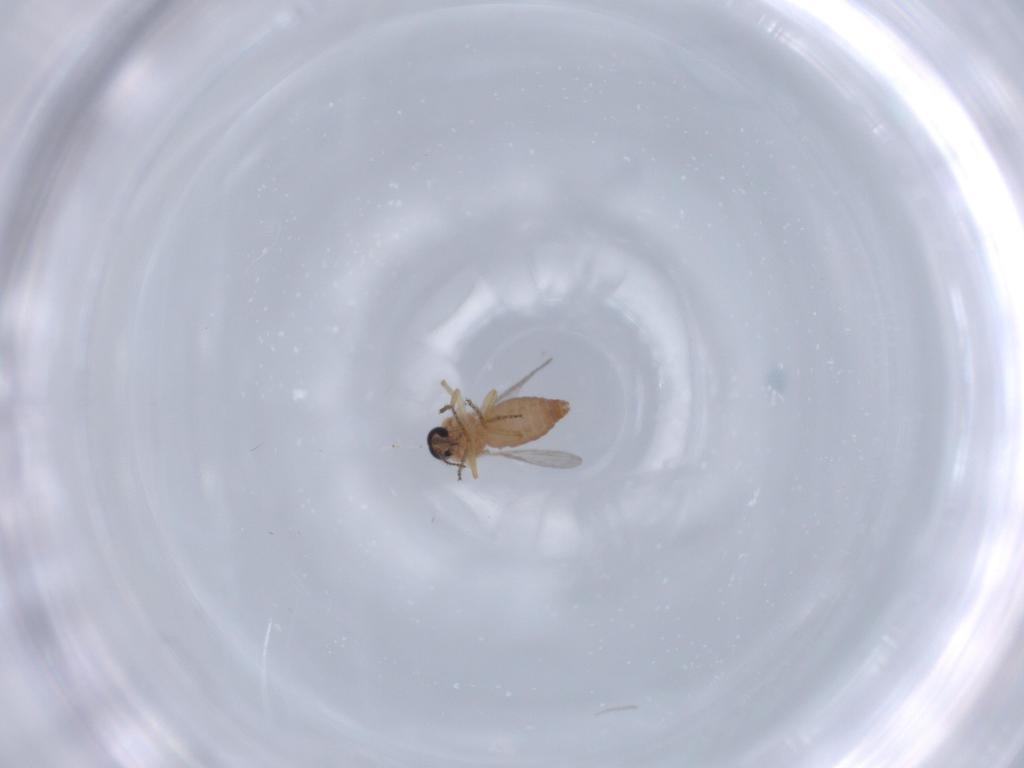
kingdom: Animalia
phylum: Arthropoda
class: Insecta
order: Diptera
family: Ceratopogonidae
